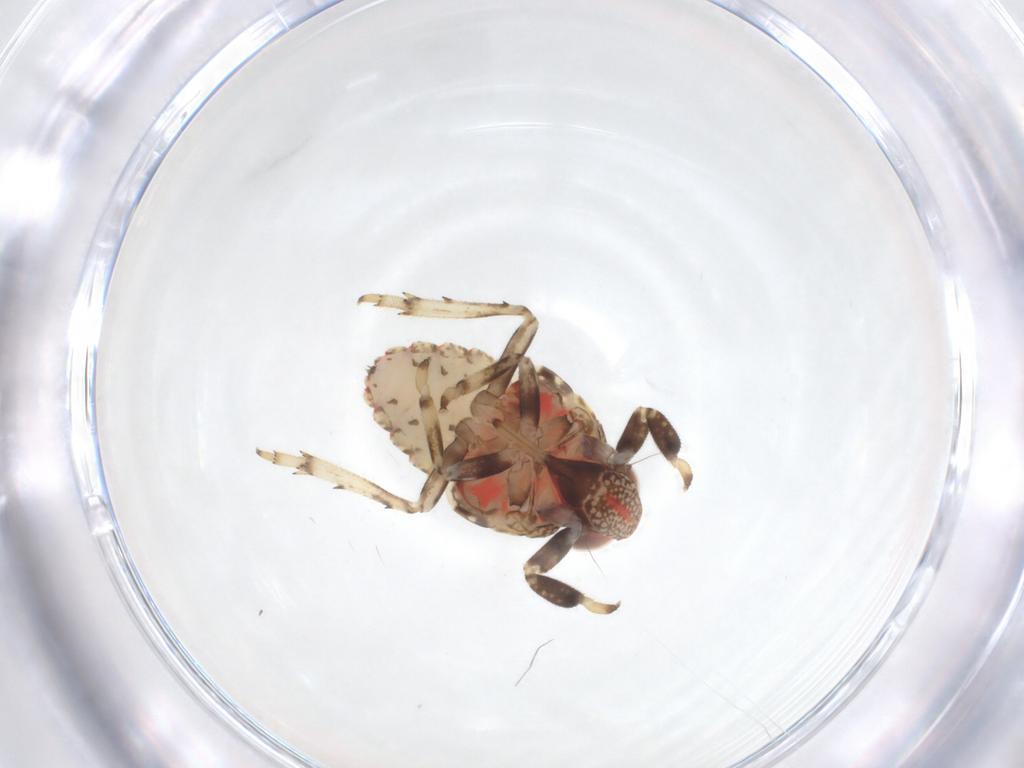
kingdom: Animalia
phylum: Arthropoda
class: Insecta
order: Hemiptera
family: Issidae
